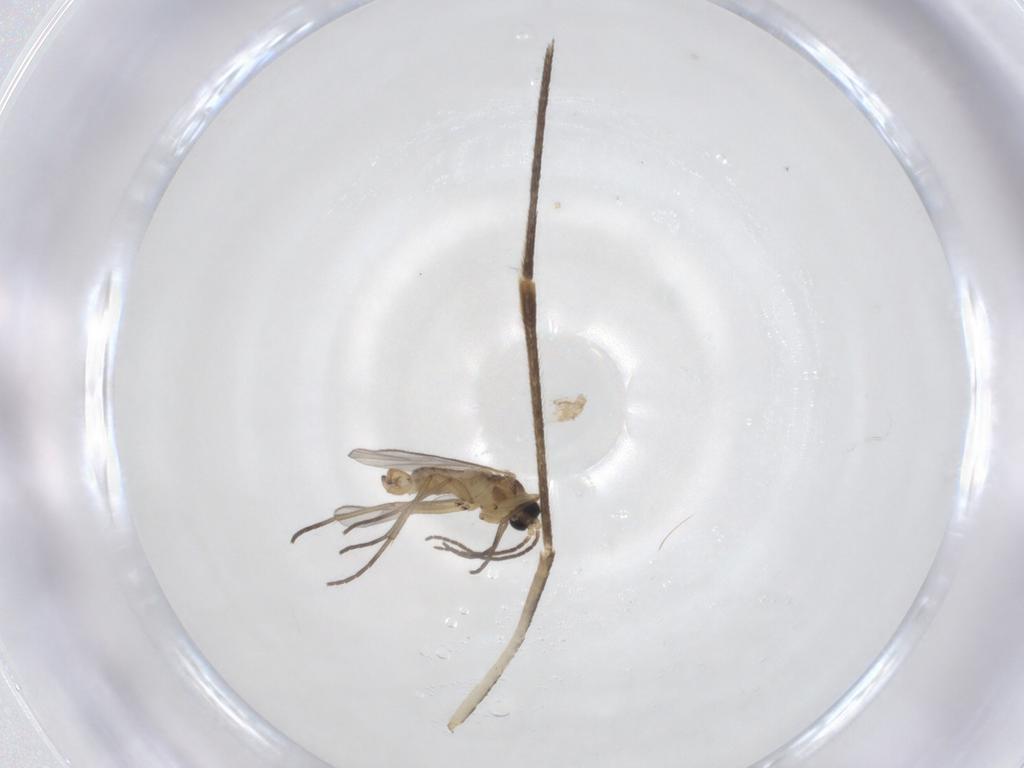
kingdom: Animalia
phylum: Arthropoda
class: Insecta
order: Diptera
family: Culicidae
